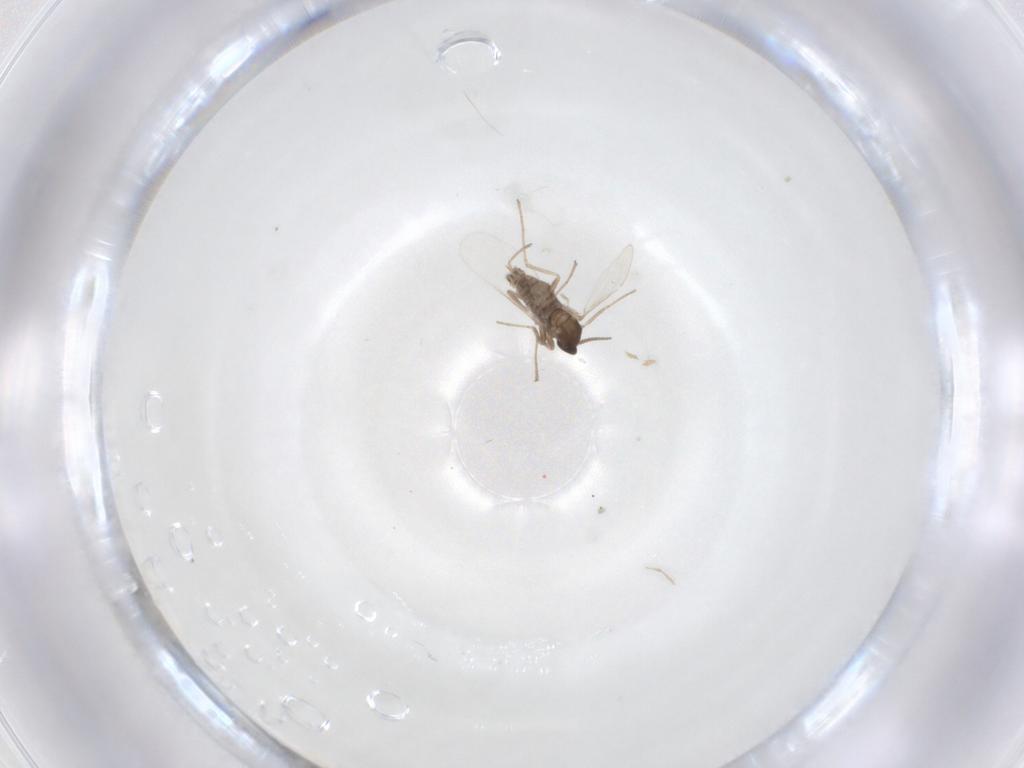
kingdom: Animalia
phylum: Arthropoda
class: Insecta
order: Diptera
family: Cecidomyiidae
